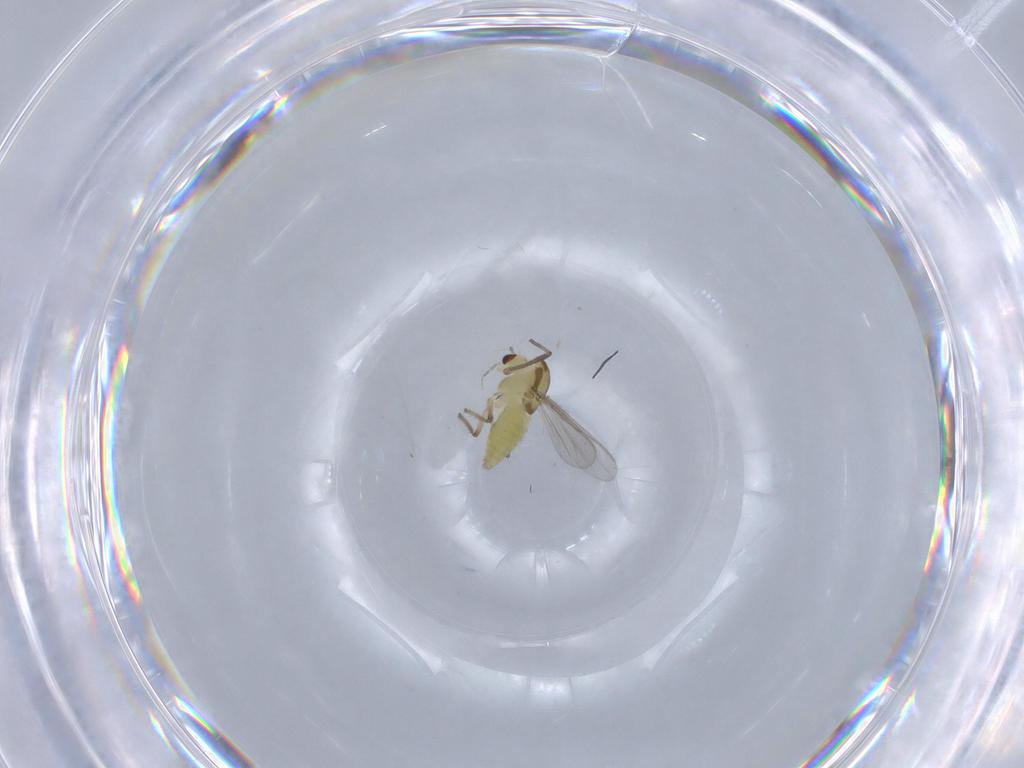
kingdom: Animalia
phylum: Arthropoda
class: Insecta
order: Diptera
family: Chironomidae
